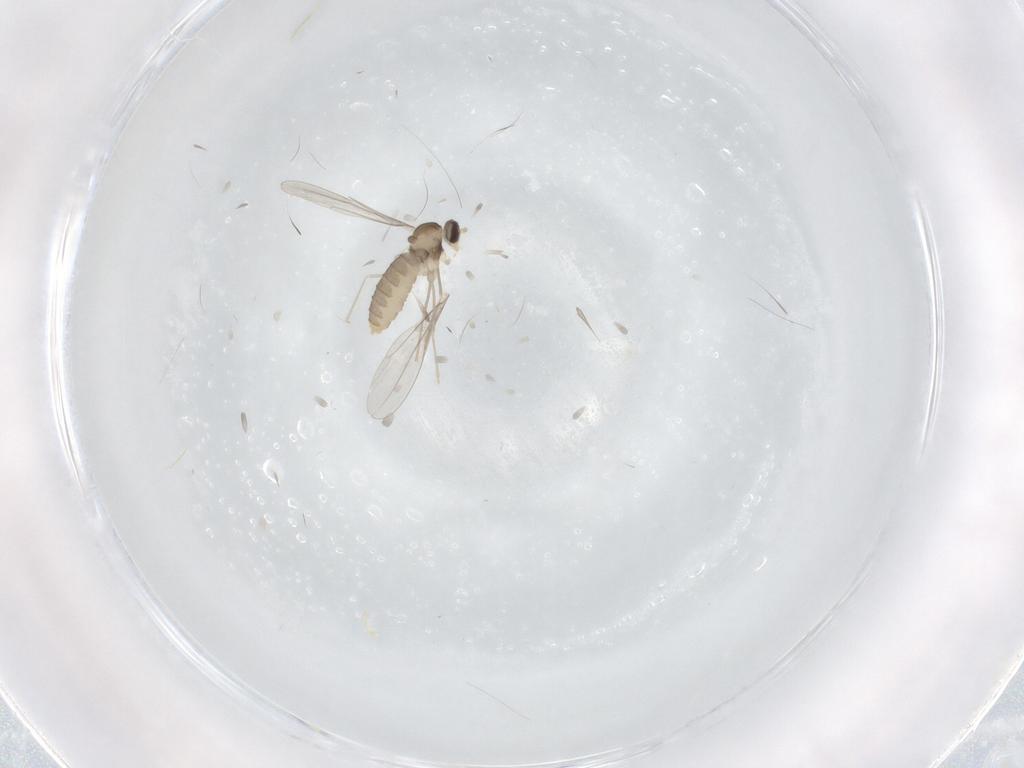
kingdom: Animalia
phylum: Arthropoda
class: Insecta
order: Diptera
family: Cecidomyiidae
